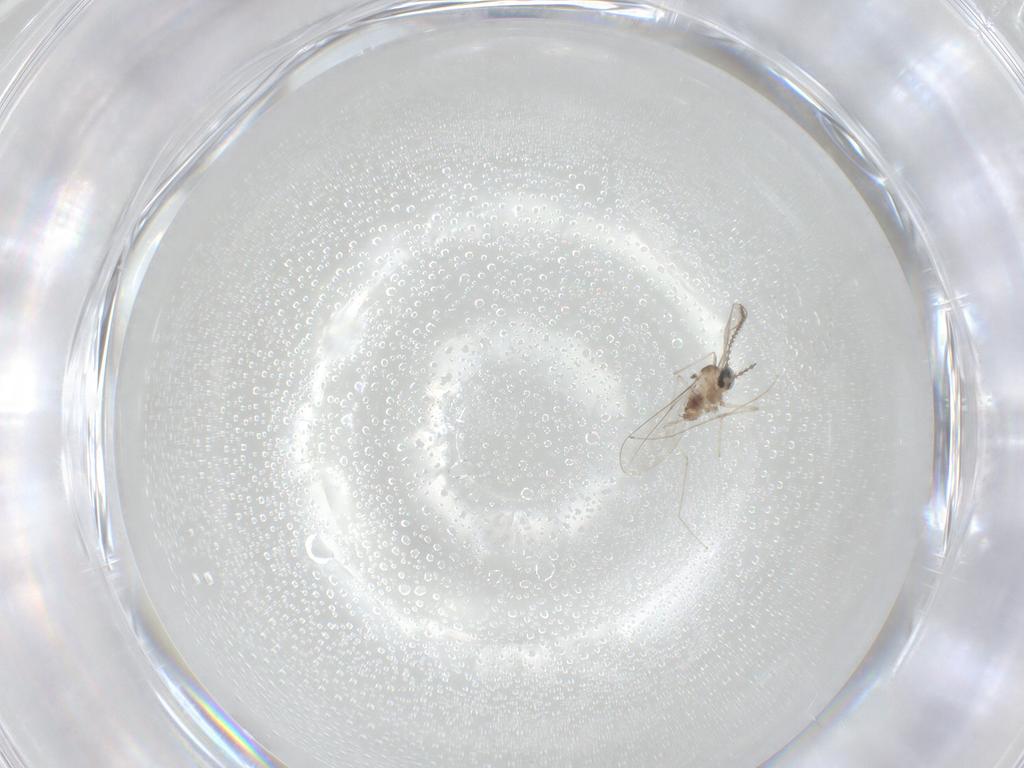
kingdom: Animalia
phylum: Arthropoda
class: Insecta
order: Diptera
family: Cecidomyiidae
